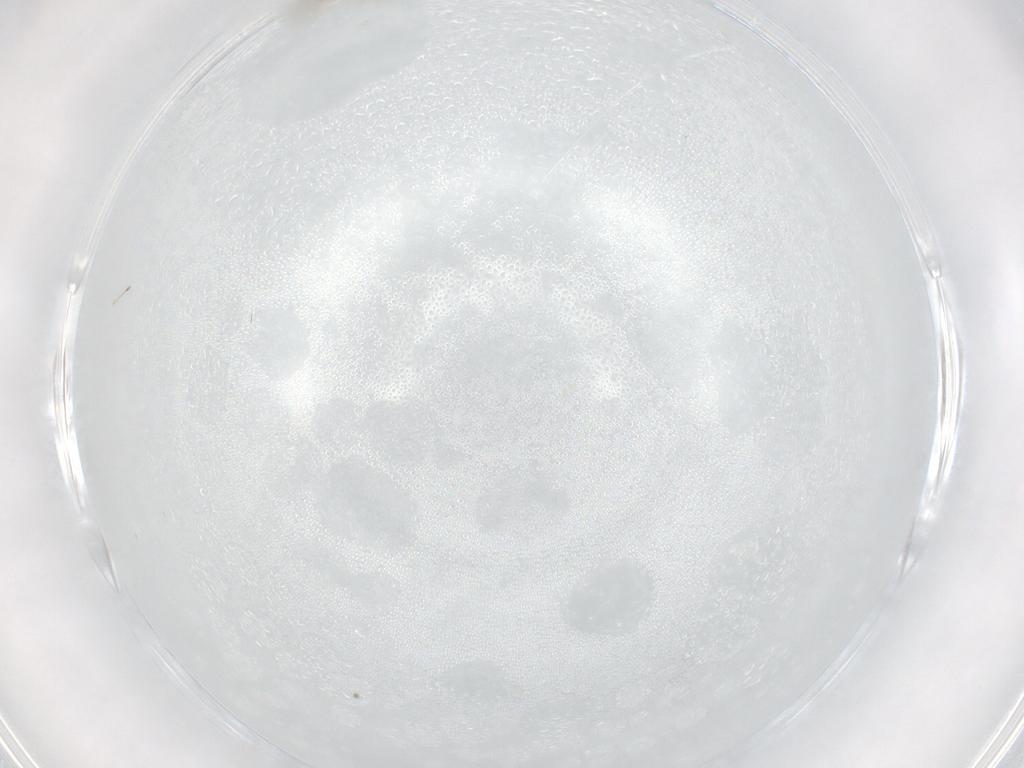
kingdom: Animalia
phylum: Arthropoda
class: Insecta
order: Diptera
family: Cecidomyiidae
